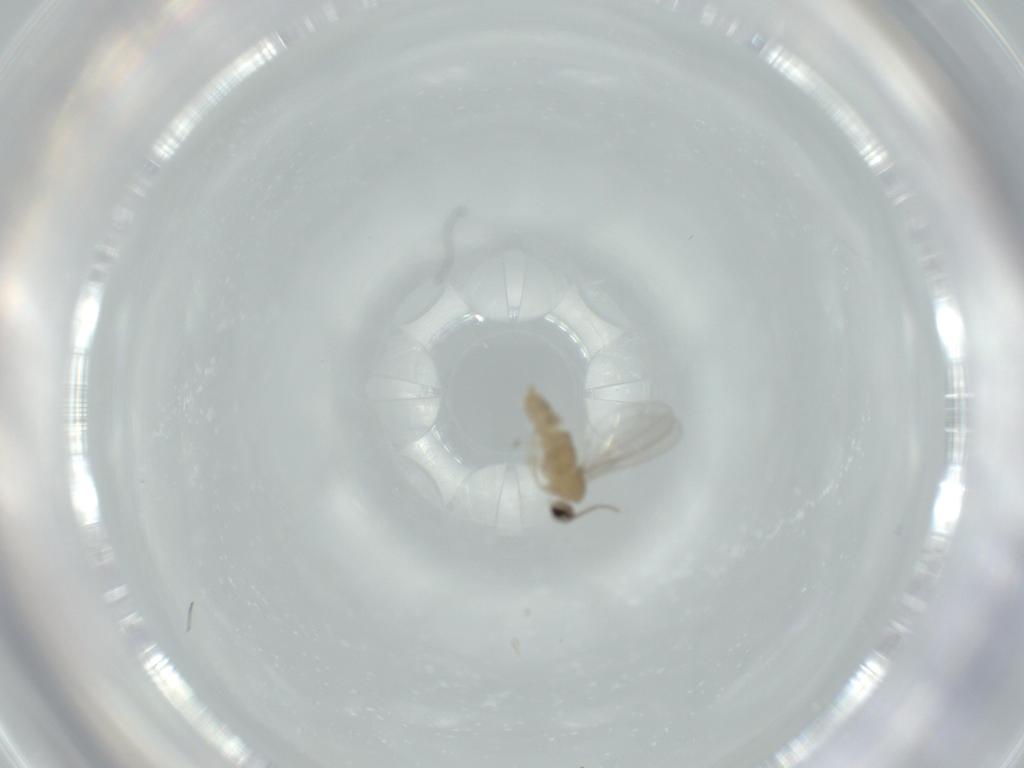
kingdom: Animalia
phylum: Arthropoda
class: Insecta
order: Diptera
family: Cecidomyiidae
